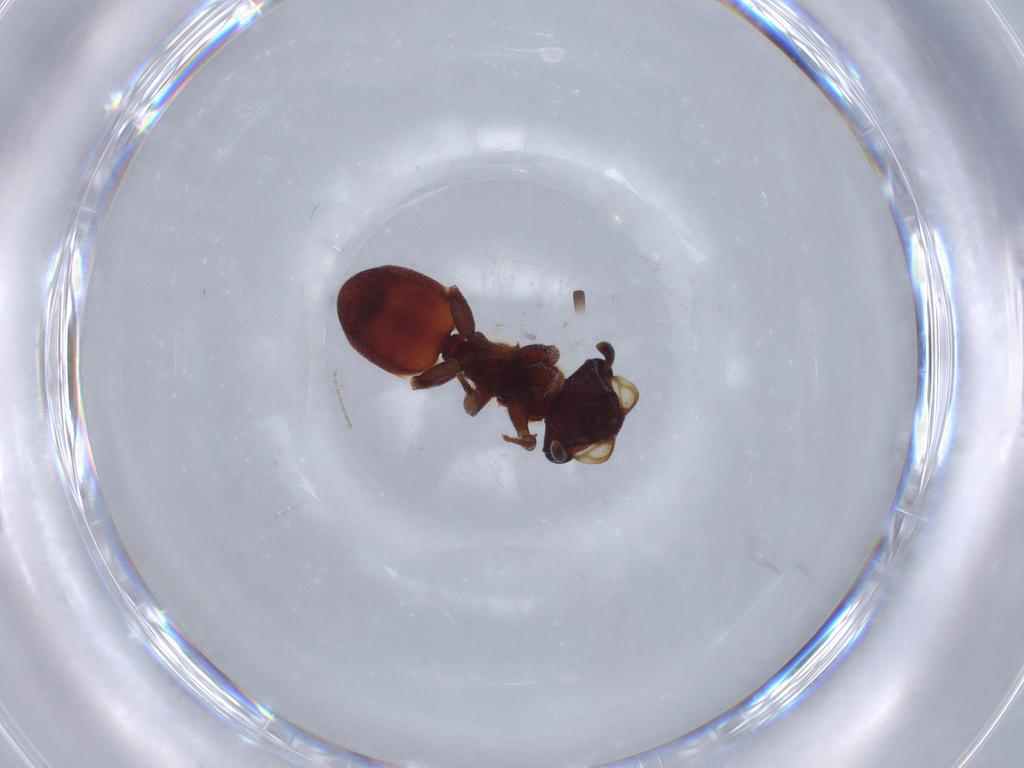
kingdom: Animalia
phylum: Arthropoda
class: Insecta
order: Hymenoptera
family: Formicidae
